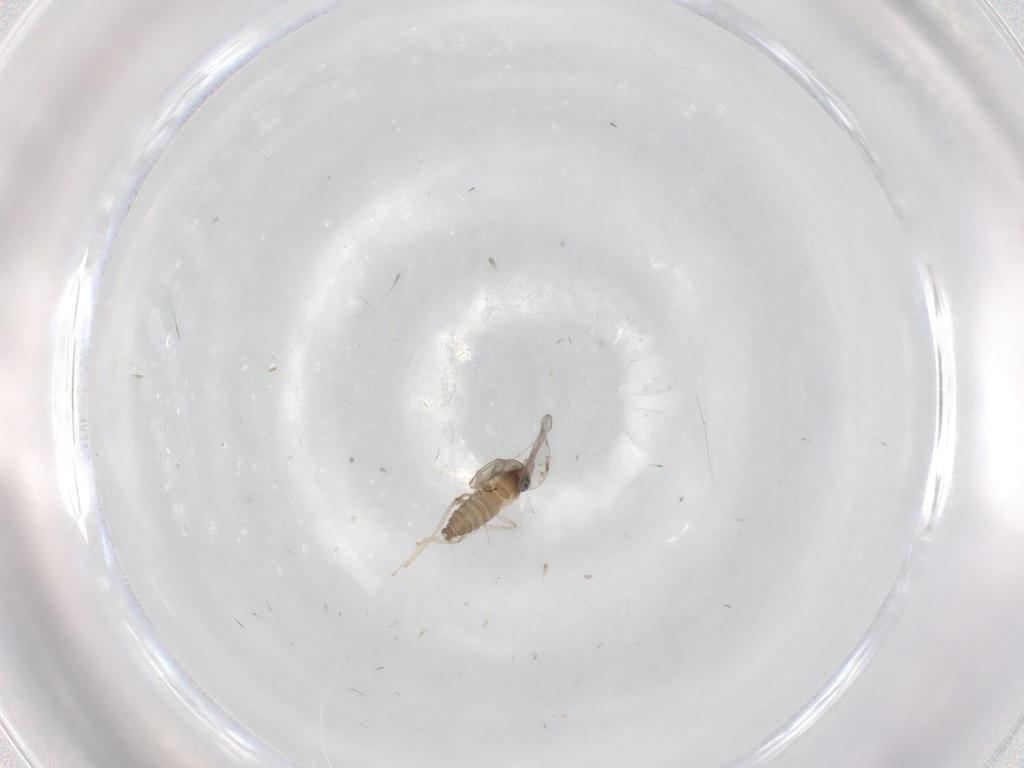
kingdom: Animalia
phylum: Arthropoda
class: Insecta
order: Diptera
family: Cecidomyiidae
